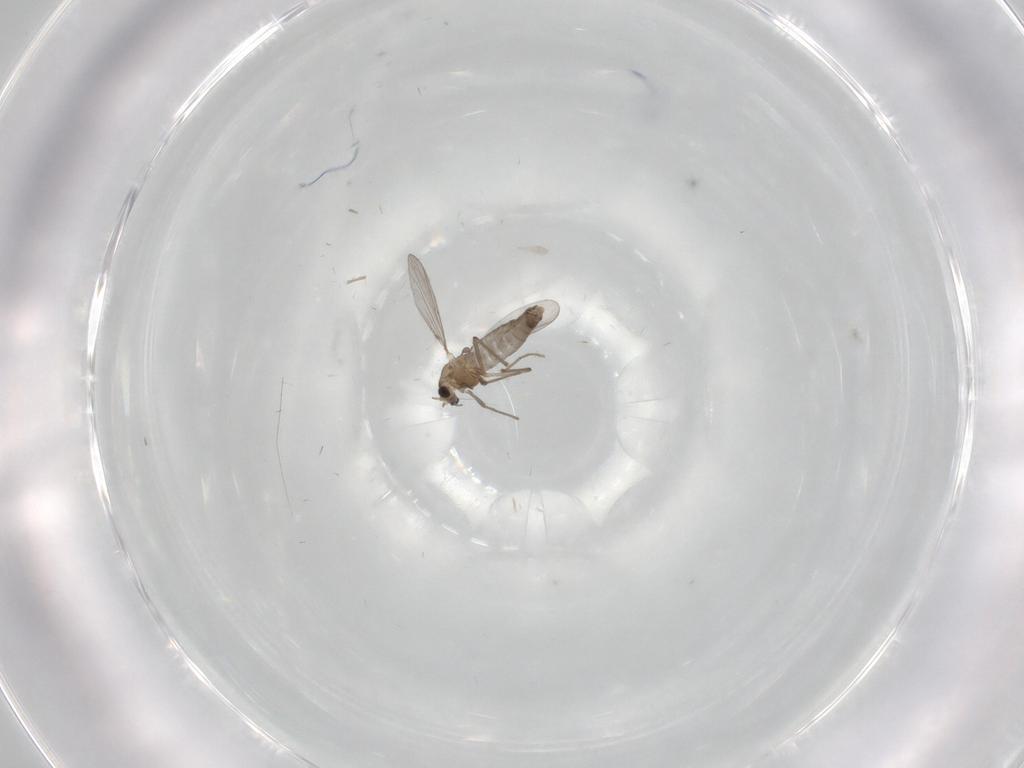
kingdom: Animalia
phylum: Arthropoda
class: Insecta
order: Diptera
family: Chironomidae
